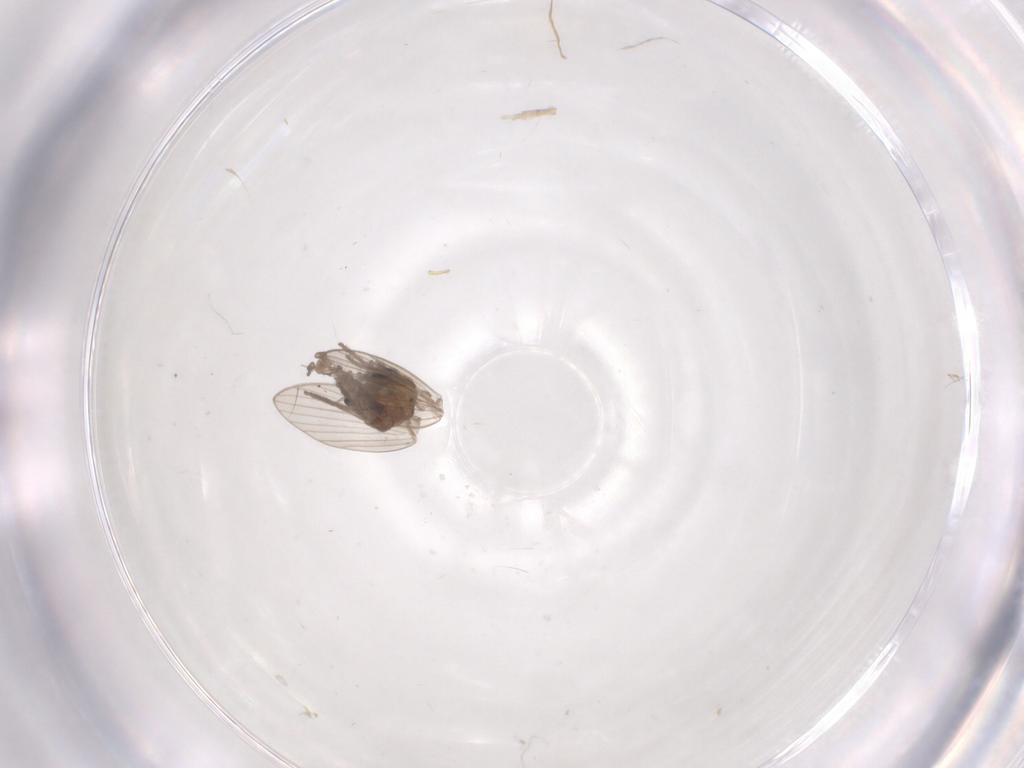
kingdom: Animalia
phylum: Arthropoda
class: Insecta
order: Diptera
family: Psychodidae
